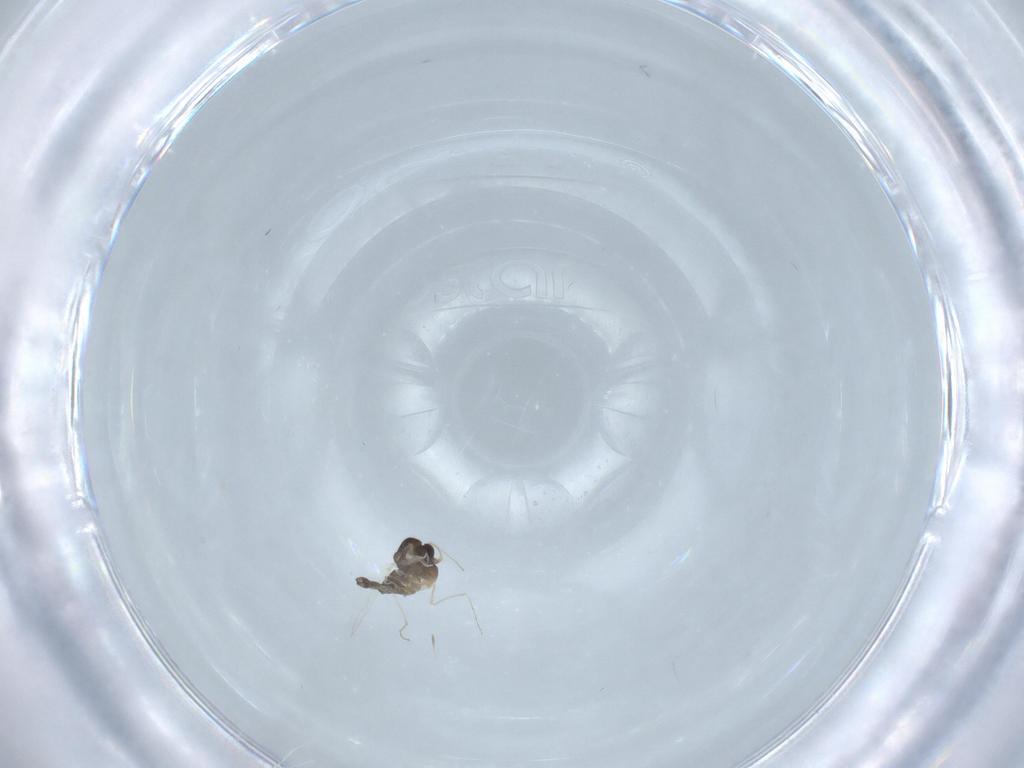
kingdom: Animalia
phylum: Arthropoda
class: Insecta
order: Diptera
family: Chironomidae
